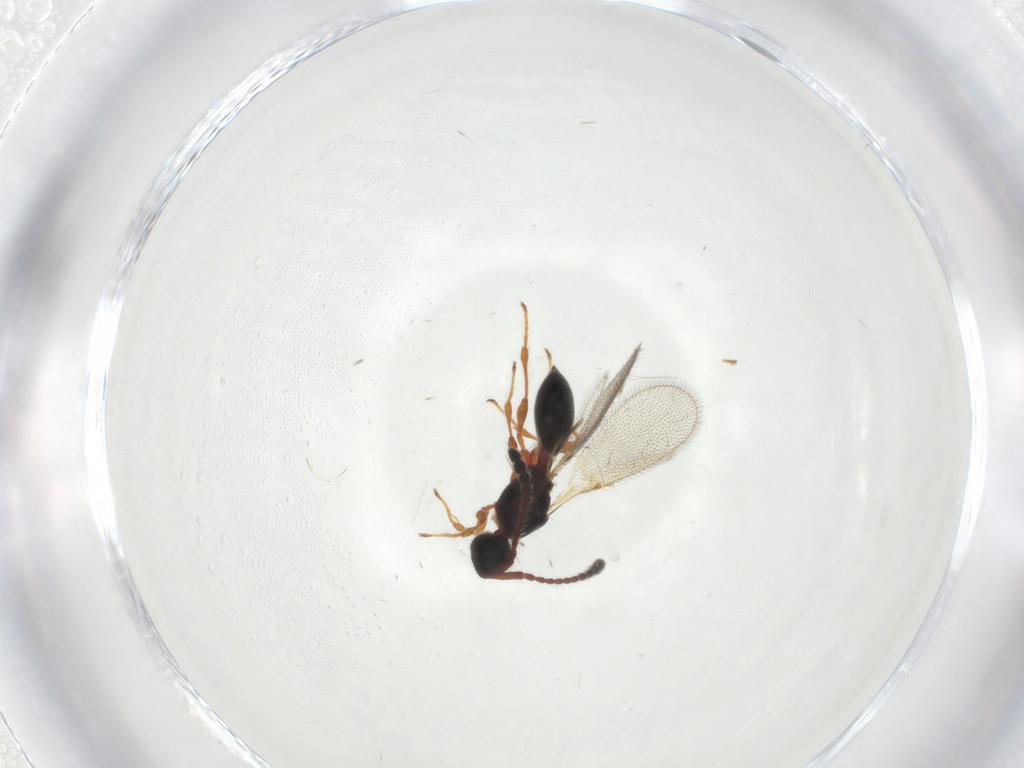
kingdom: Animalia
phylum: Arthropoda
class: Insecta
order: Hymenoptera
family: Diapriidae
